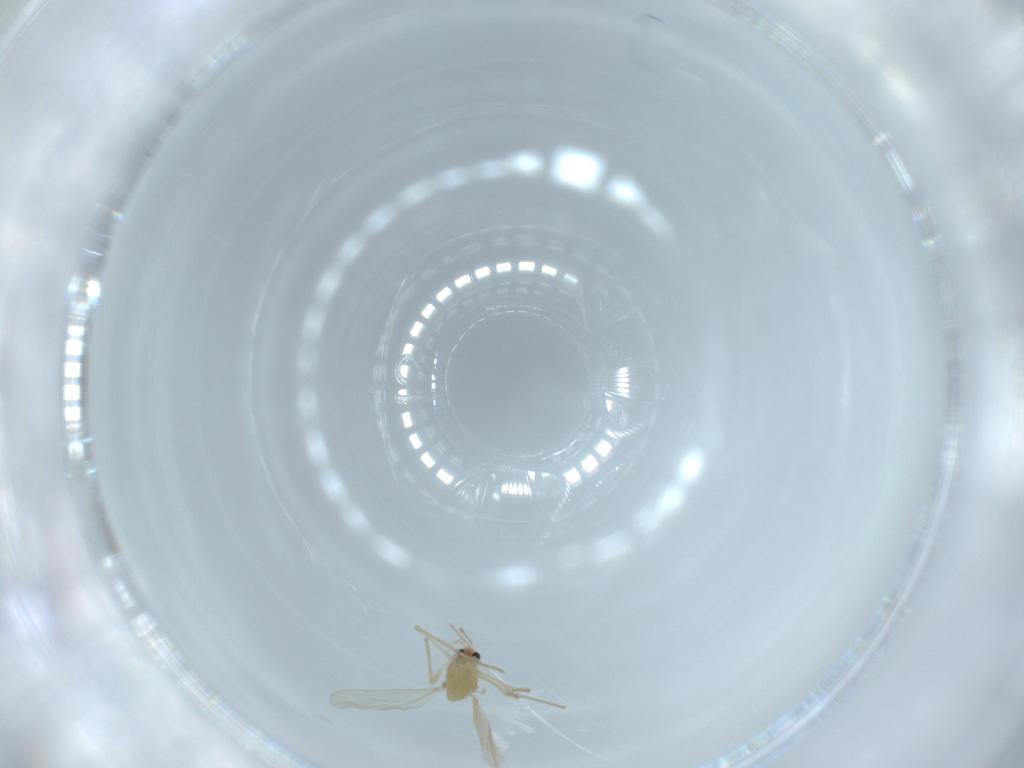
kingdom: Animalia
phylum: Arthropoda
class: Insecta
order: Diptera
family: Chironomidae
